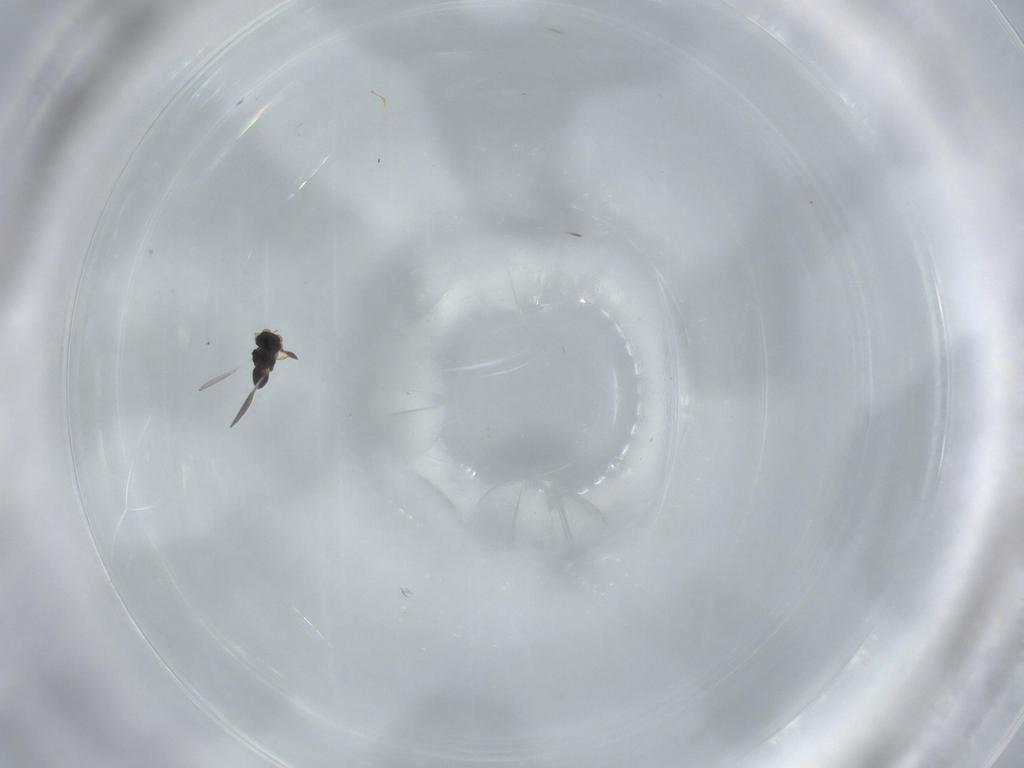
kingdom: Animalia
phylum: Arthropoda
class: Insecta
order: Hymenoptera
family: Platygastridae
